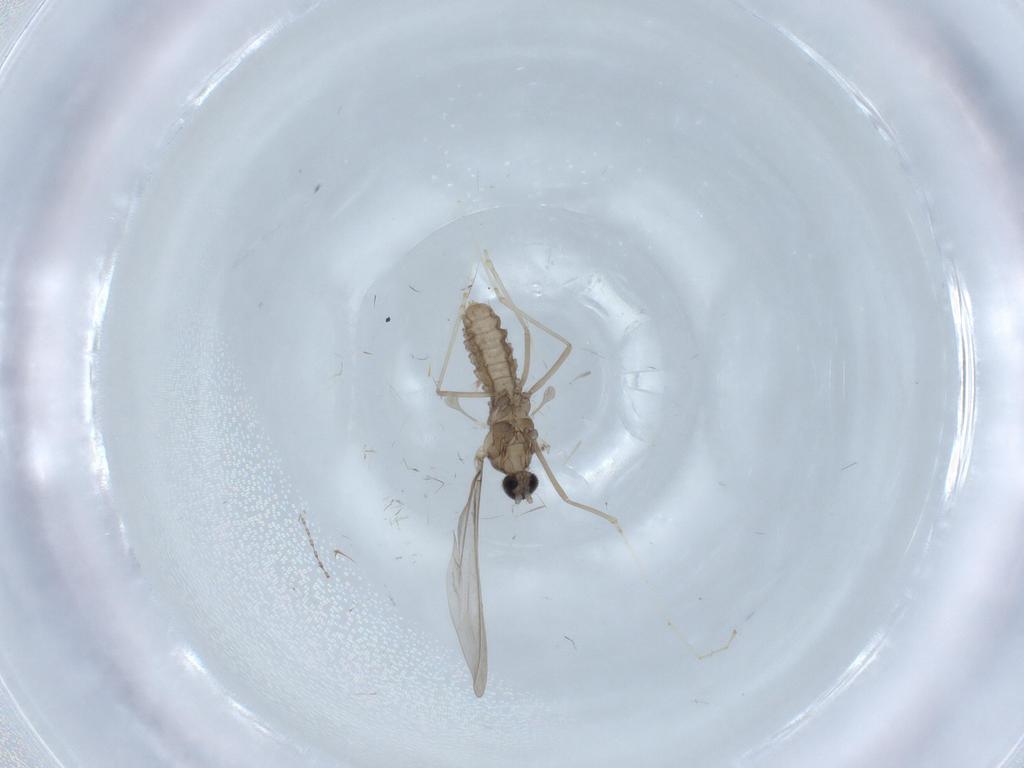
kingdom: Animalia
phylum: Arthropoda
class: Insecta
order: Diptera
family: Cecidomyiidae
